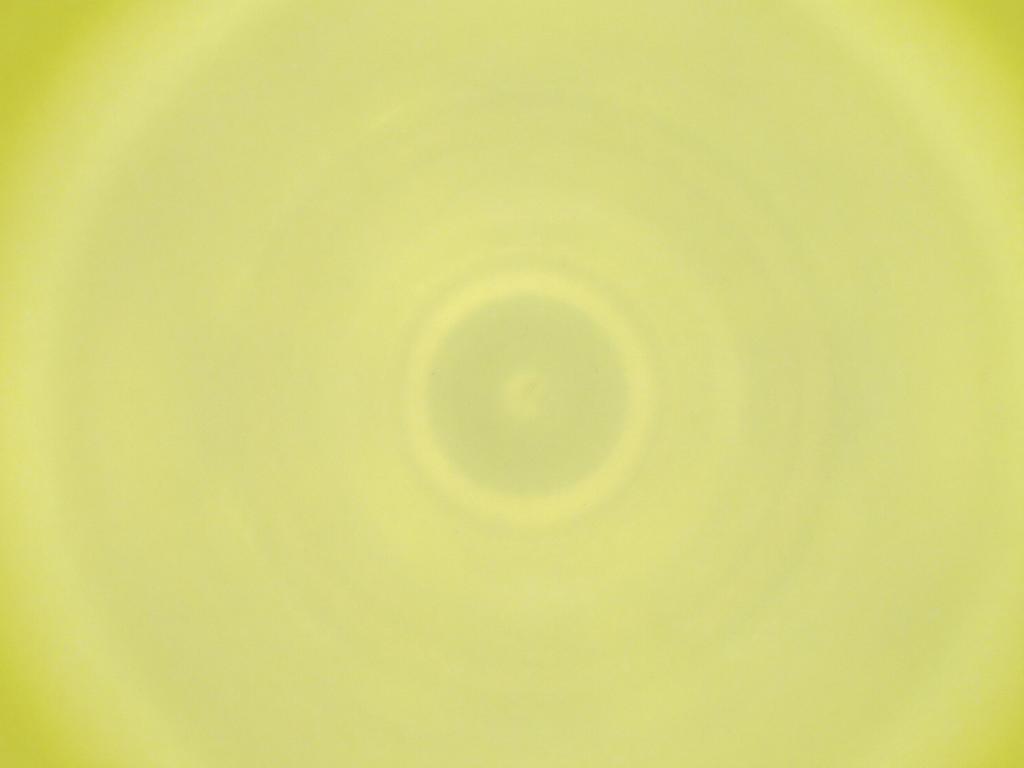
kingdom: Animalia
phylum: Arthropoda
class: Insecta
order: Diptera
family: Cecidomyiidae
